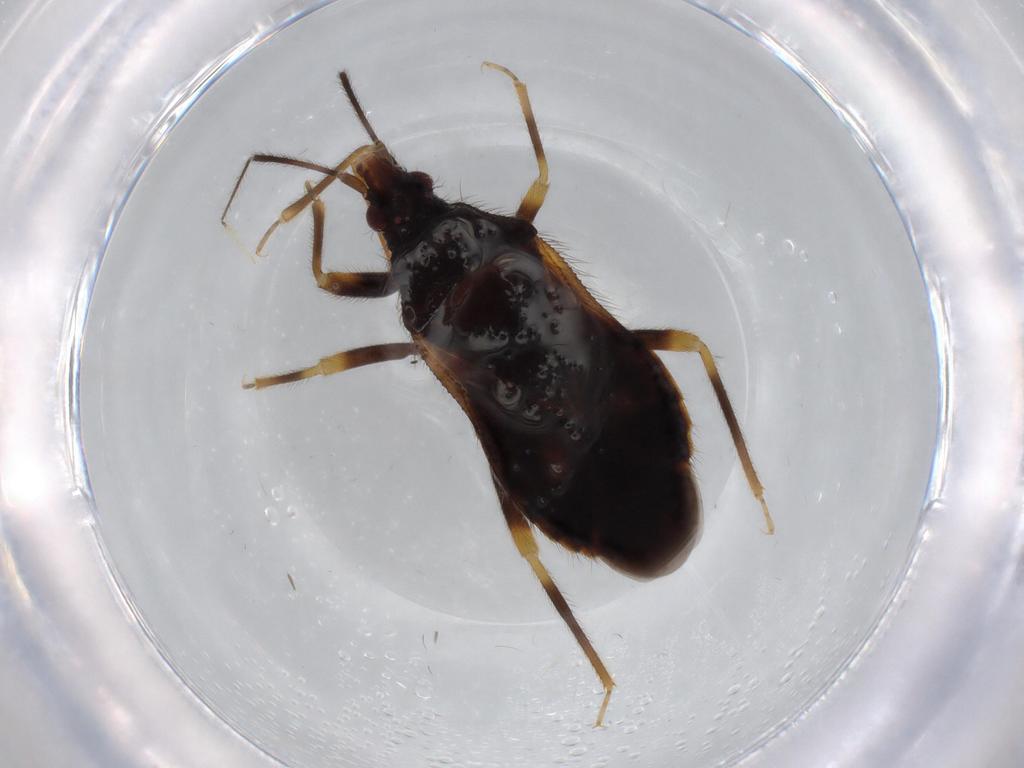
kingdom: Animalia
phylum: Arthropoda
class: Insecta
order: Hemiptera
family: Anthocoridae
